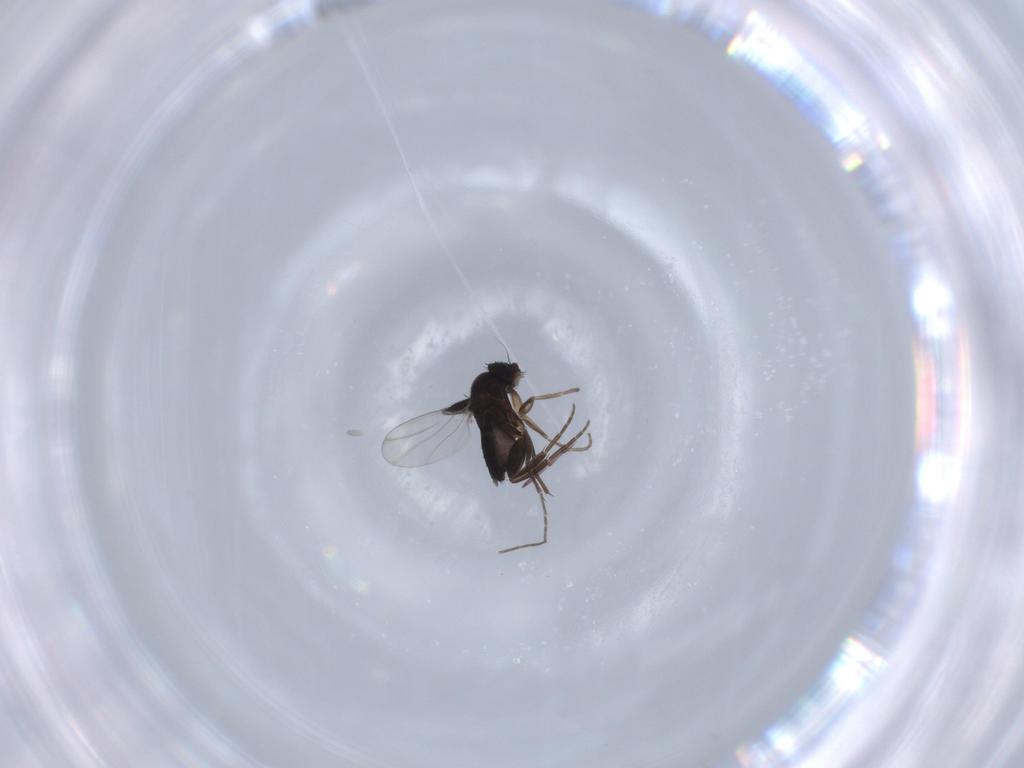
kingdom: Animalia
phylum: Arthropoda
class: Insecta
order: Diptera
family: Phoridae
